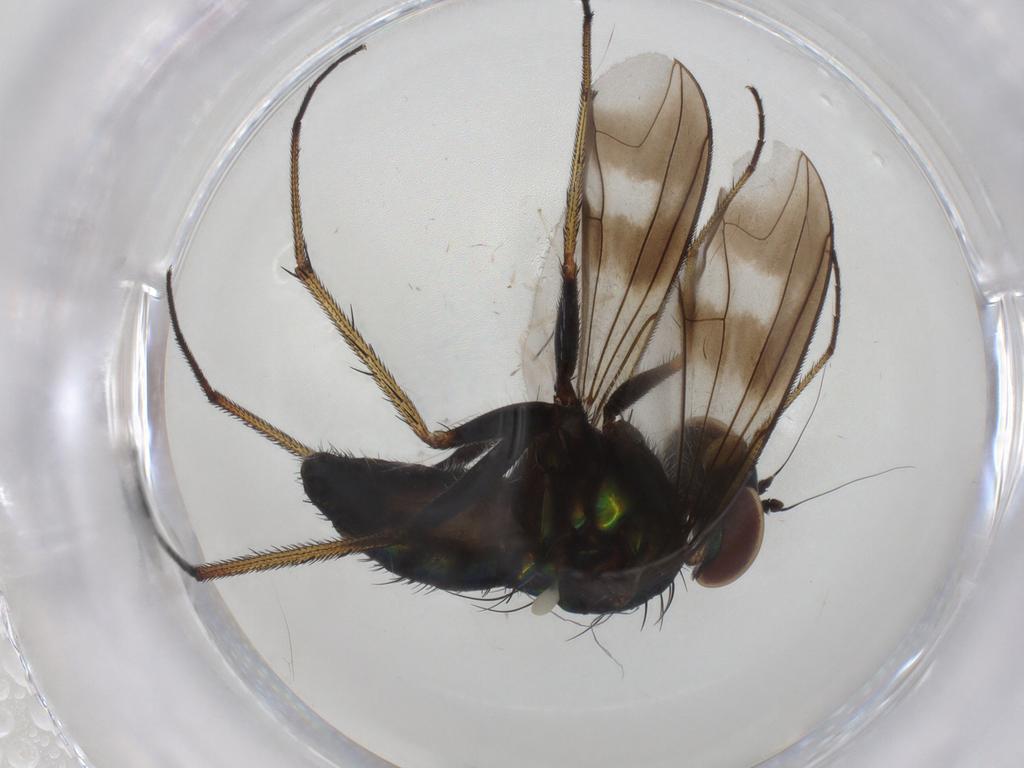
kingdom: Animalia
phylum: Arthropoda
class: Insecta
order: Diptera
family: Dolichopodidae
